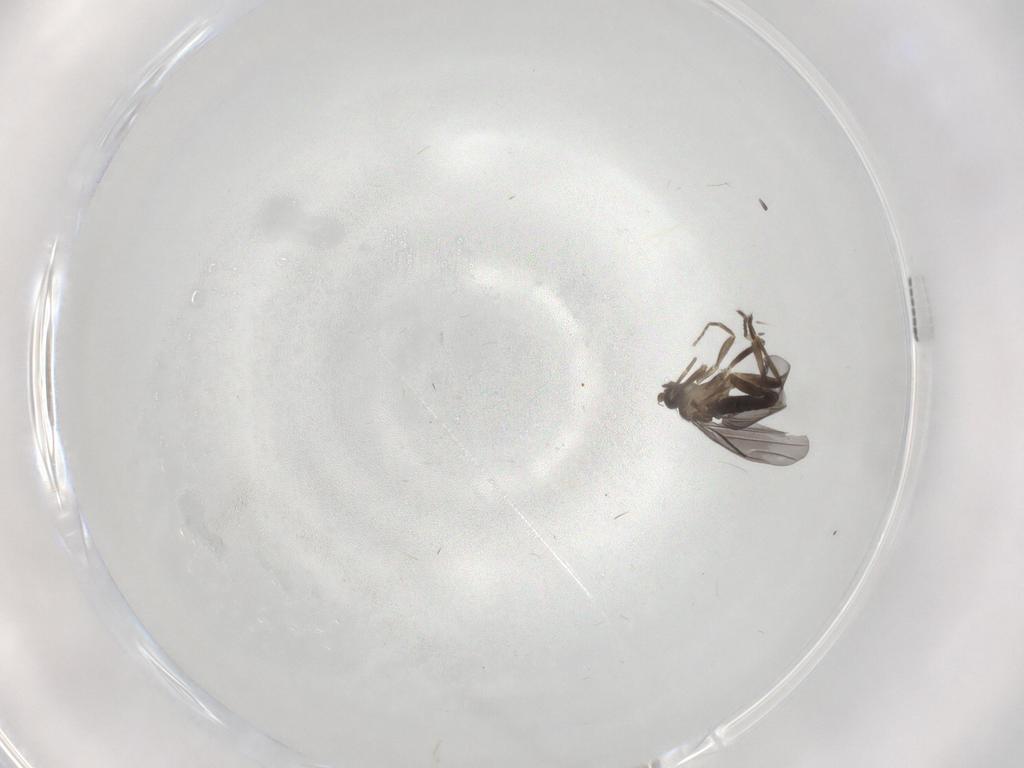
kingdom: Animalia
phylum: Arthropoda
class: Insecta
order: Diptera
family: Sciaridae
